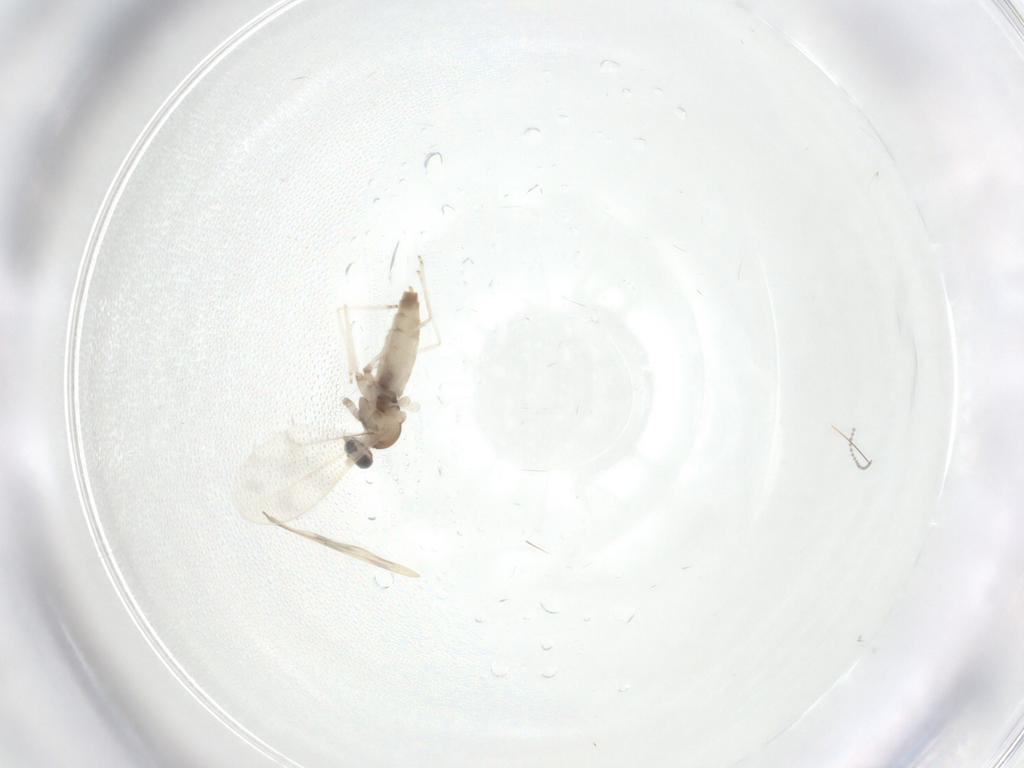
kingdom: Animalia
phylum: Arthropoda
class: Insecta
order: Diptera
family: Cecidomyiidae
